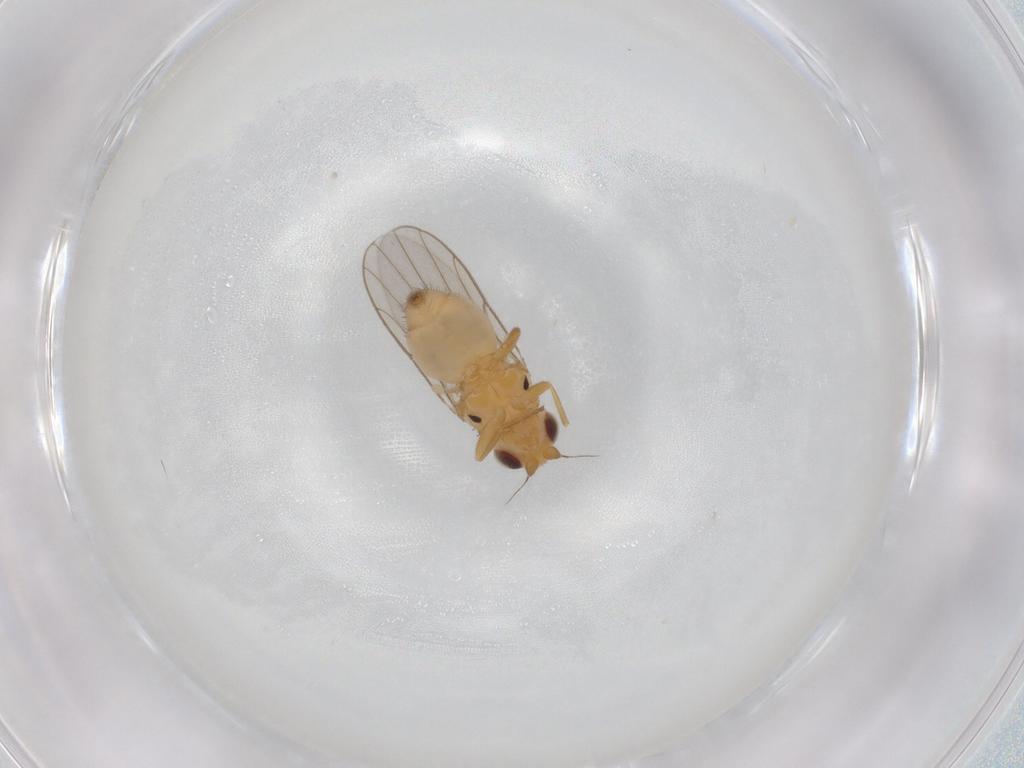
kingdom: Animalia
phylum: Arthropoda
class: Insecta
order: Diptera
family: Chloropidae
